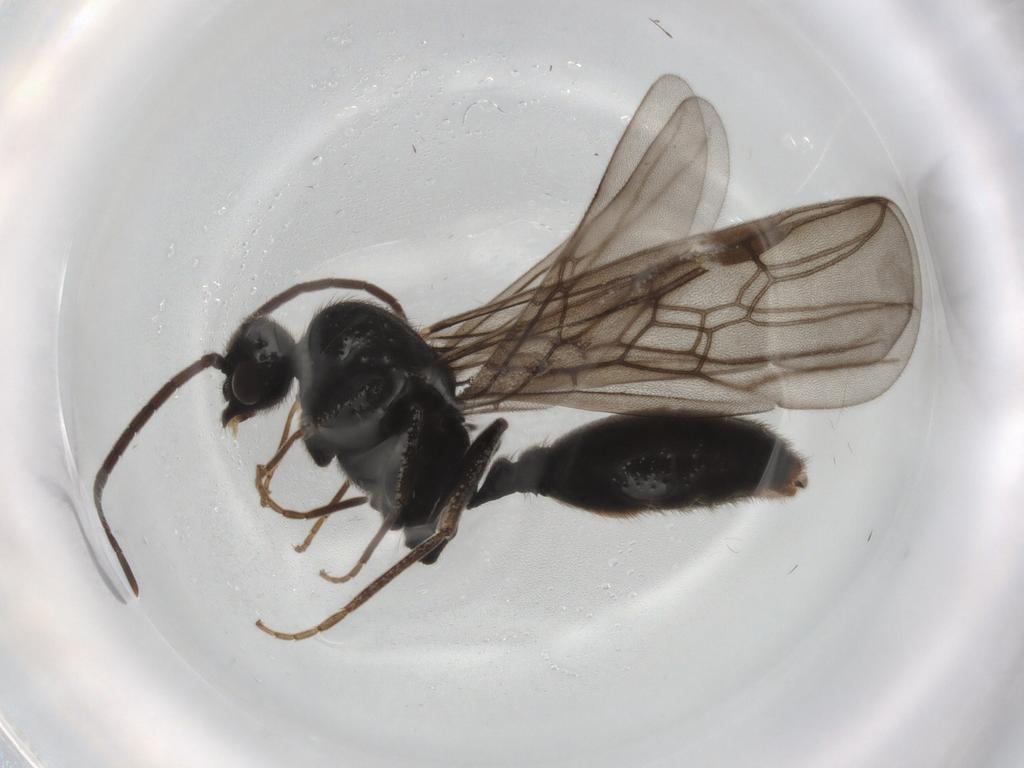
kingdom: Animalia
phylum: Arthropoda
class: Insecta
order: Hymenoptera
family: Formicidae
